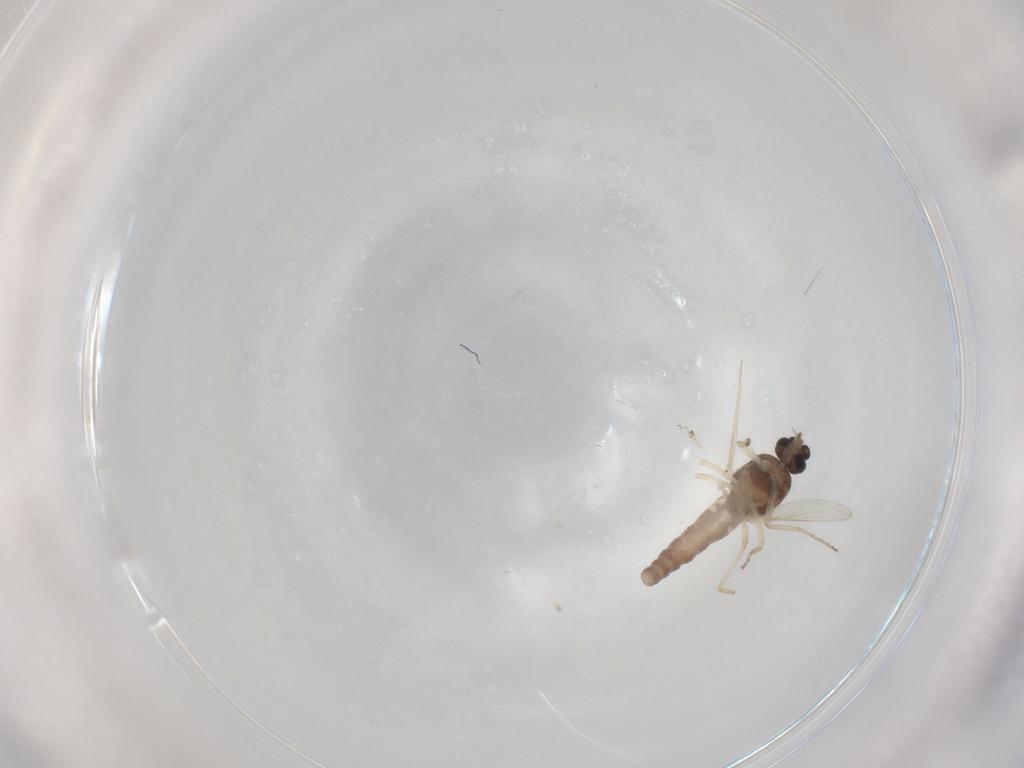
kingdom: Animalia
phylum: Arthropoda
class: Insecta
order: Diptera
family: Ceratopogonidae
